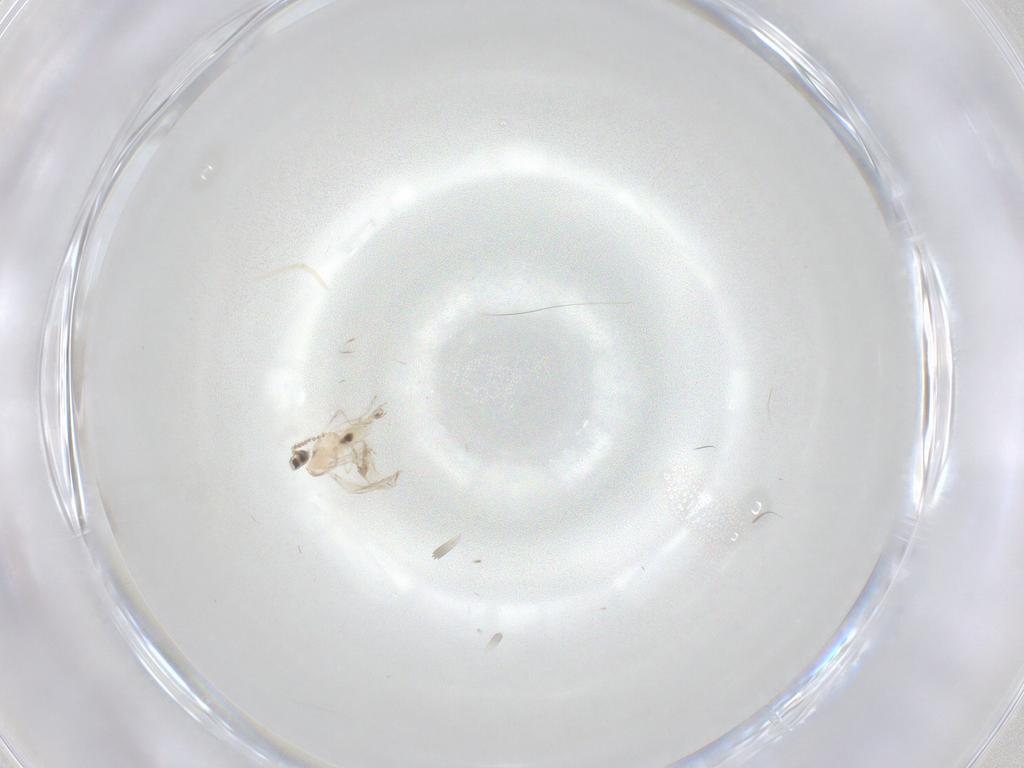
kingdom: Animalia
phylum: Arthropoda
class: Insecta
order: Diptera
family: Cecidomyiidae
